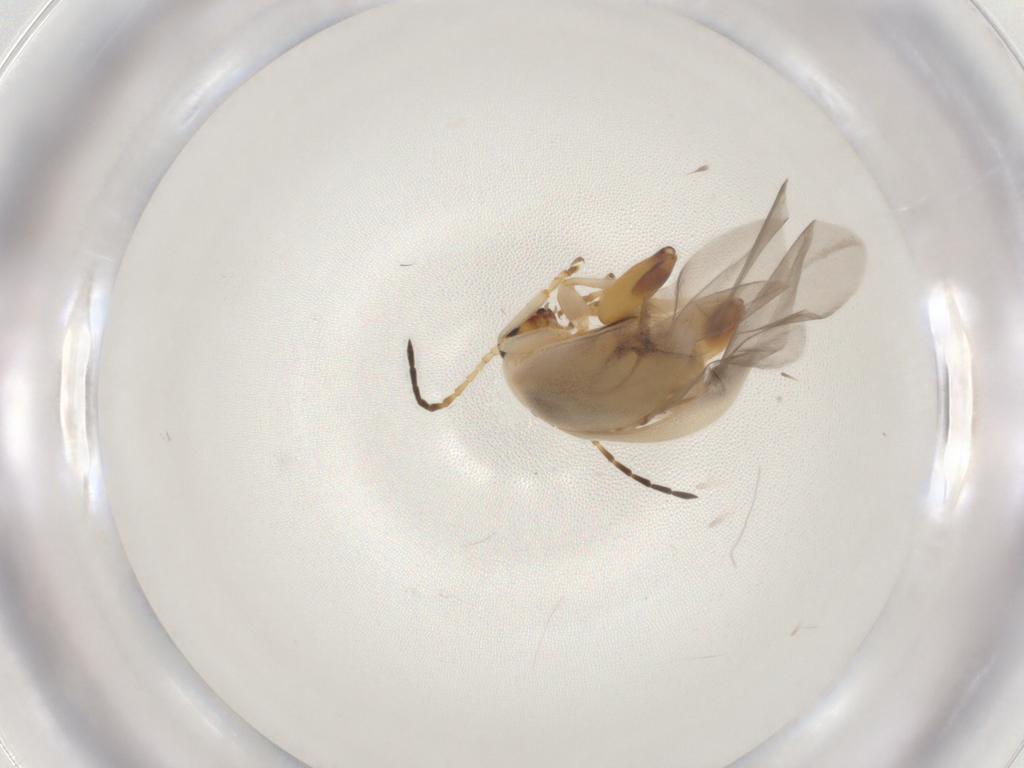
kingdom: Animalia
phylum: Arthropoda
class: Insecta
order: Coleoptera
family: Chrysomelidae
